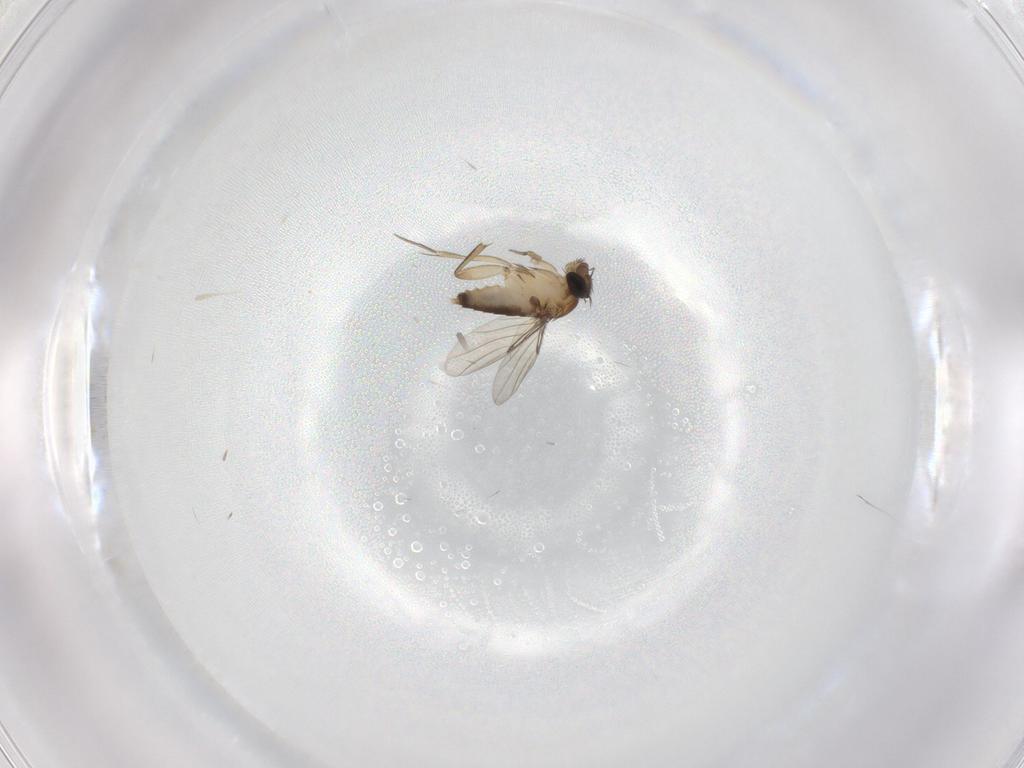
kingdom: Animalia
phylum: Arthropoda
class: Insecta
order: Diptera
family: Phoridae
